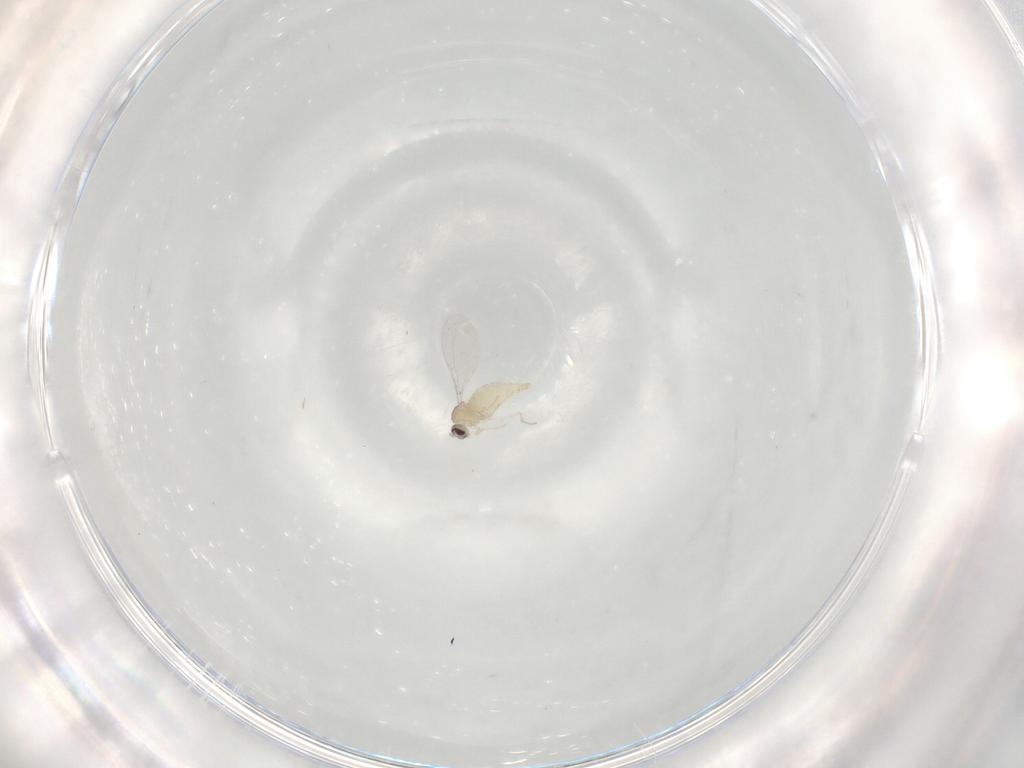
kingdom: Animalia
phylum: Arthropoda
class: Insecta
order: Diptera
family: Cecidomyiidae
